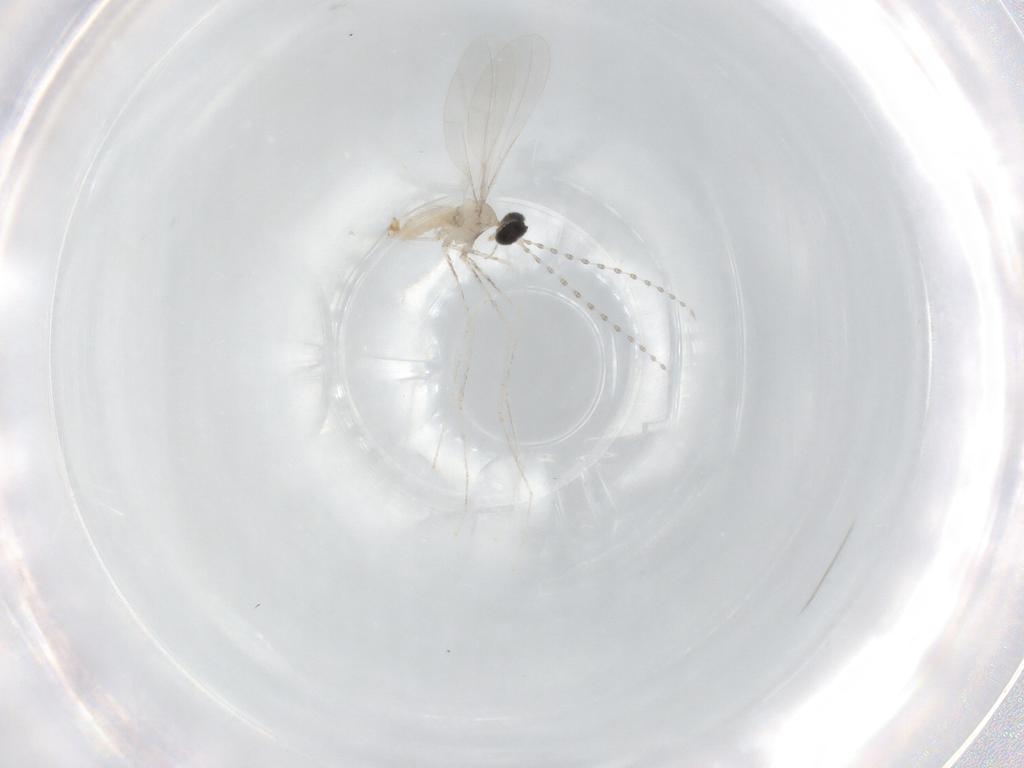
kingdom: Animalia
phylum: Arthropoda
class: Insecta
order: Diptera
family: Cecidomyiidae
